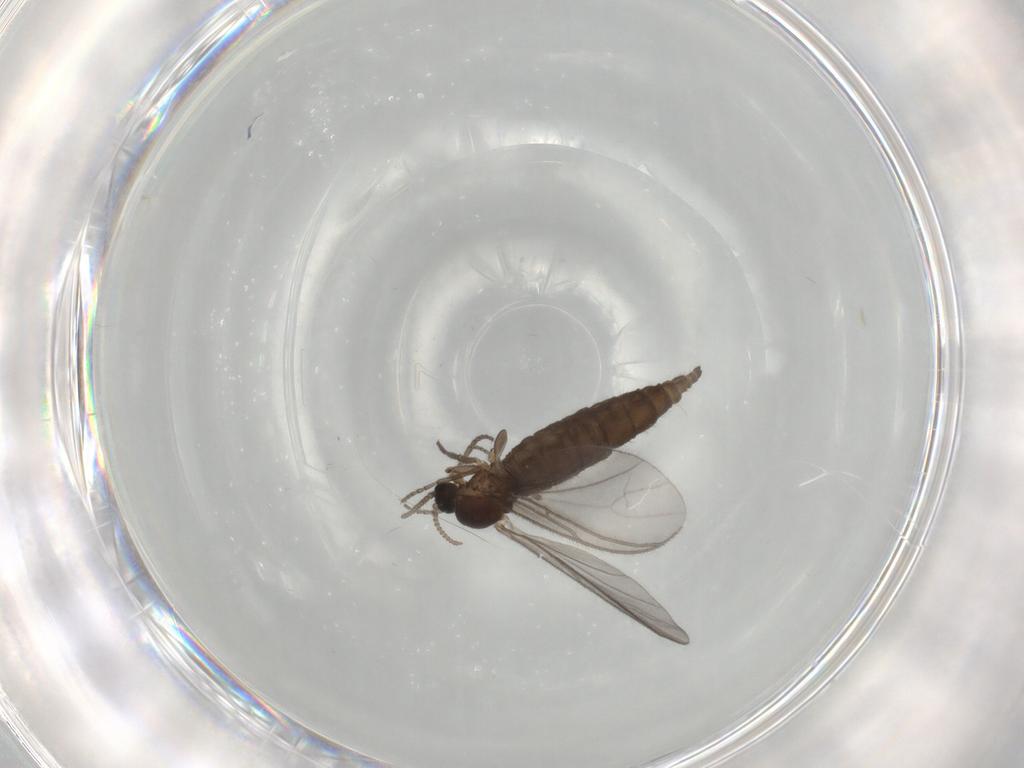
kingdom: Animalia
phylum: Arthropoda
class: Insecta
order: Diptera
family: Sciaridae
